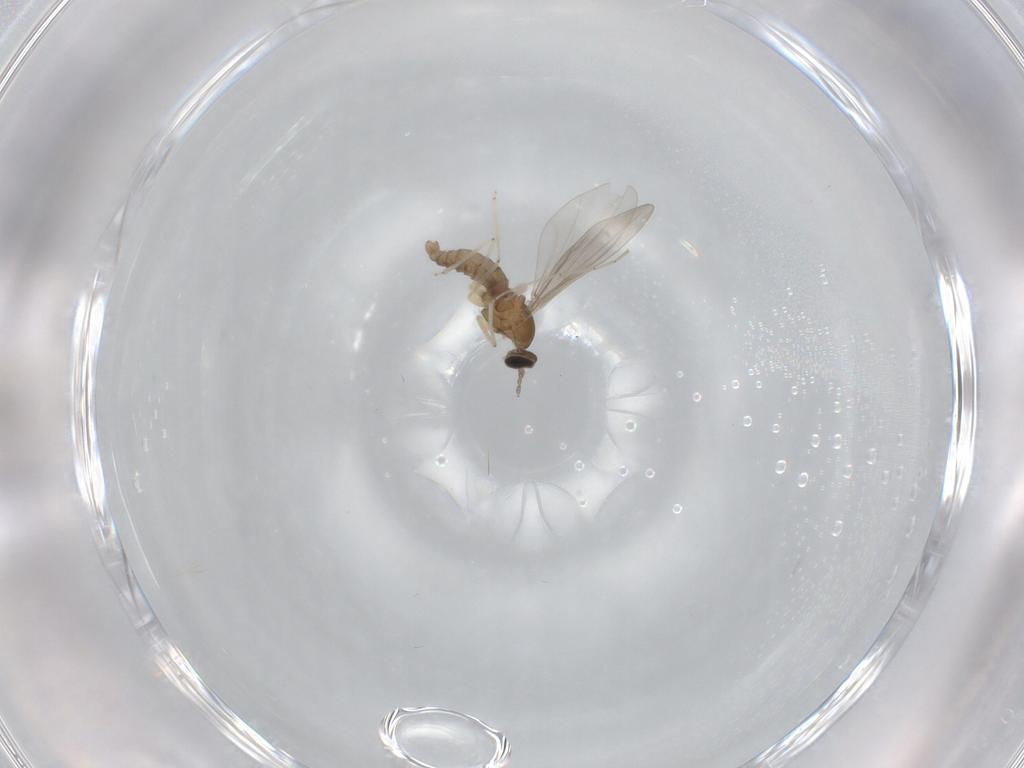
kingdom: Animalia
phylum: Arthropoda
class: Insecta
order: Diptera
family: Cecidomyiidae
